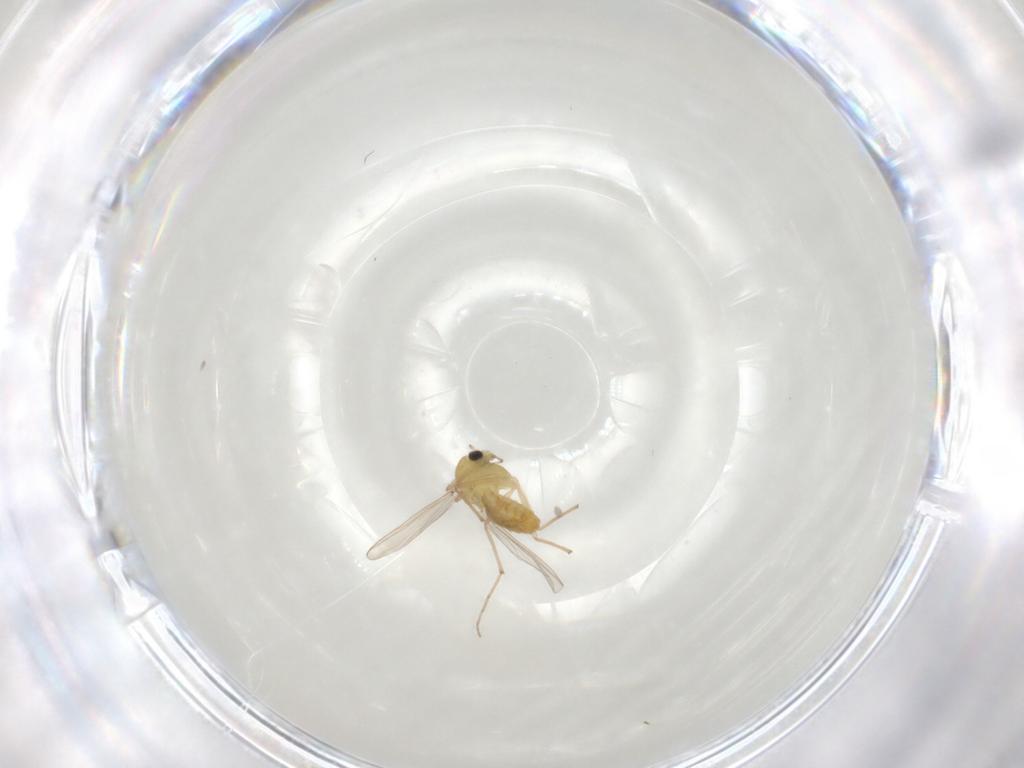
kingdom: Animalia
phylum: Arthropoda
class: Insecta
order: Diptera
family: Chironomidae
